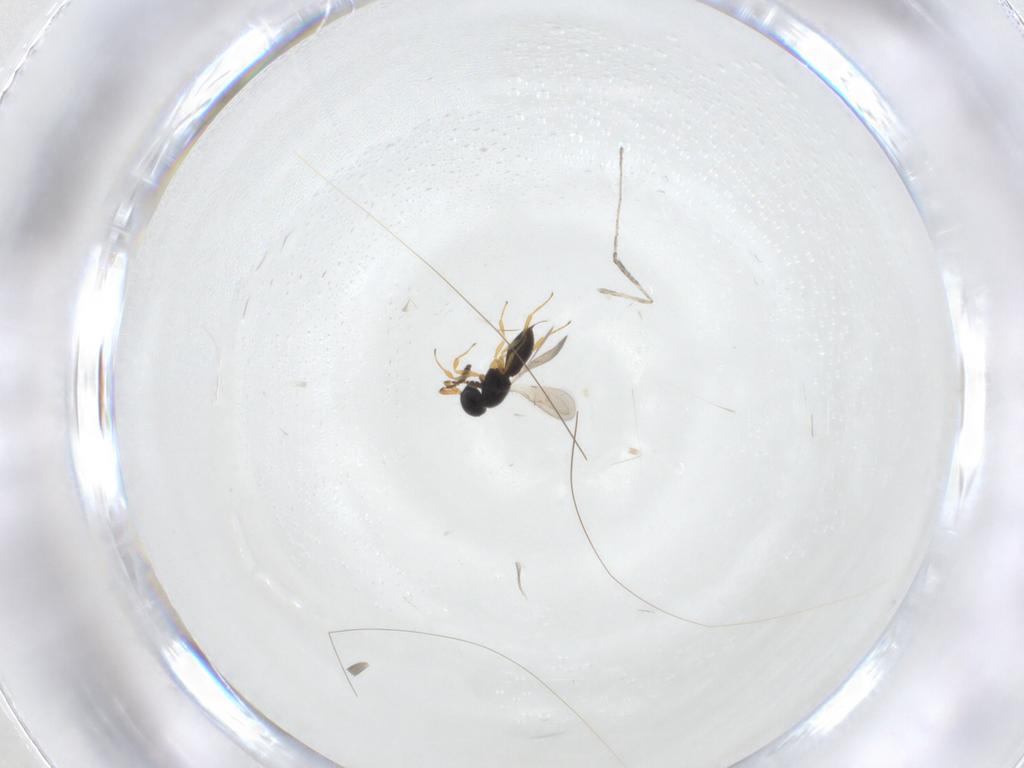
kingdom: Animalia
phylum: Arthropoda
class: Insecta
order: Hymenoptera
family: Scelionidae
